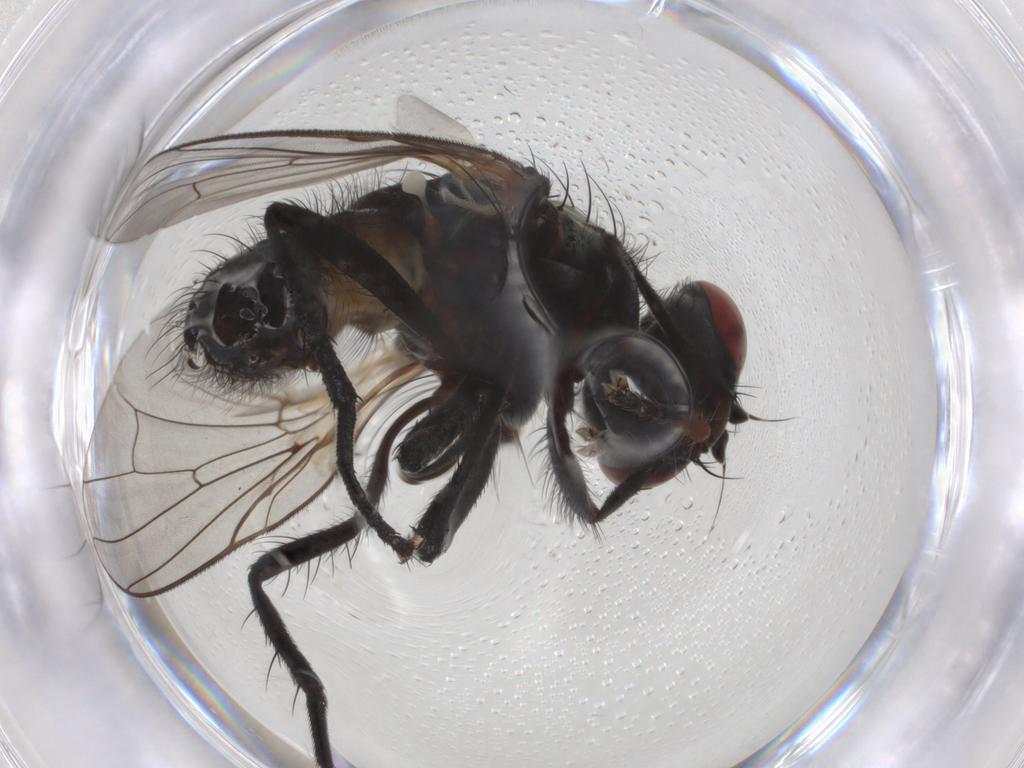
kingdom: Animalia
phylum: Arthropoda
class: Insecta
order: Diptera
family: Anthomyiidae
